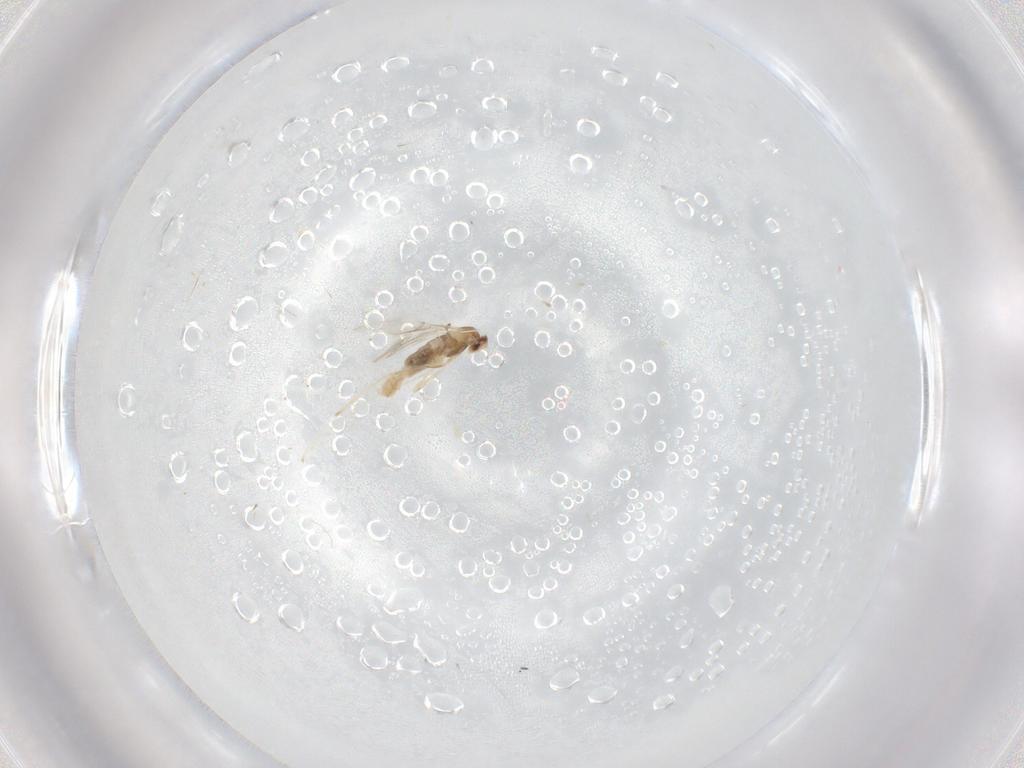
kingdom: Animalia
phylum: Arthropoda
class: Insecta
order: Diptera
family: Cecidomyiidae
